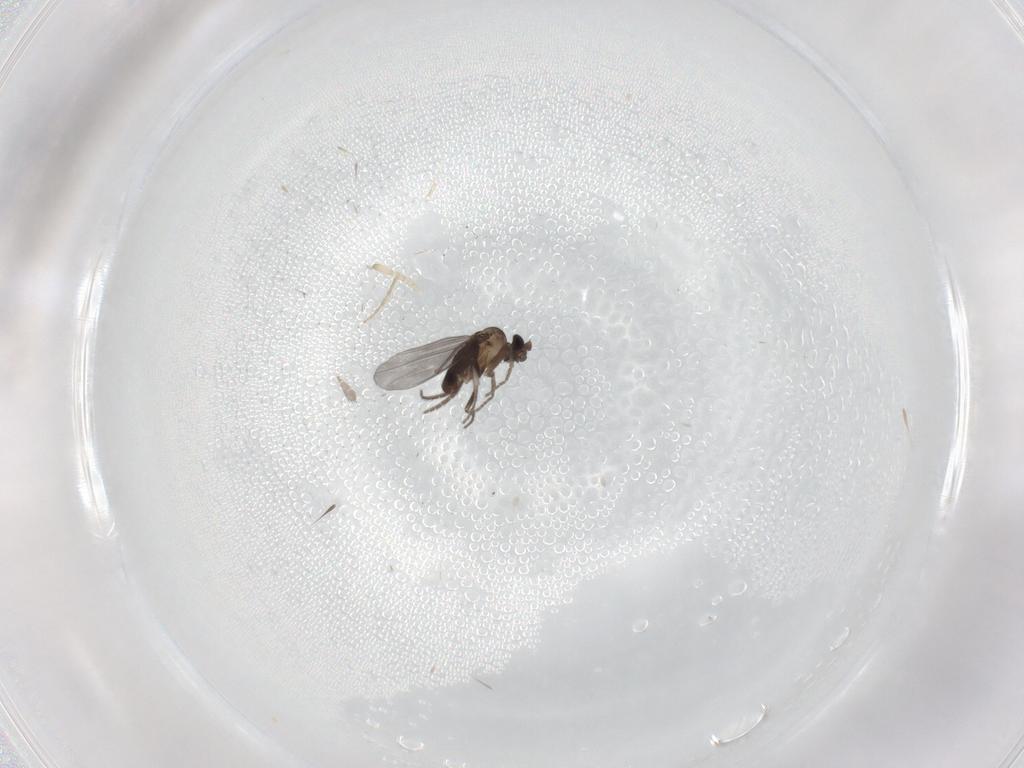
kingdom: Animalia
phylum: Arthropoda
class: Insecta
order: Diptera
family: Phoridae
